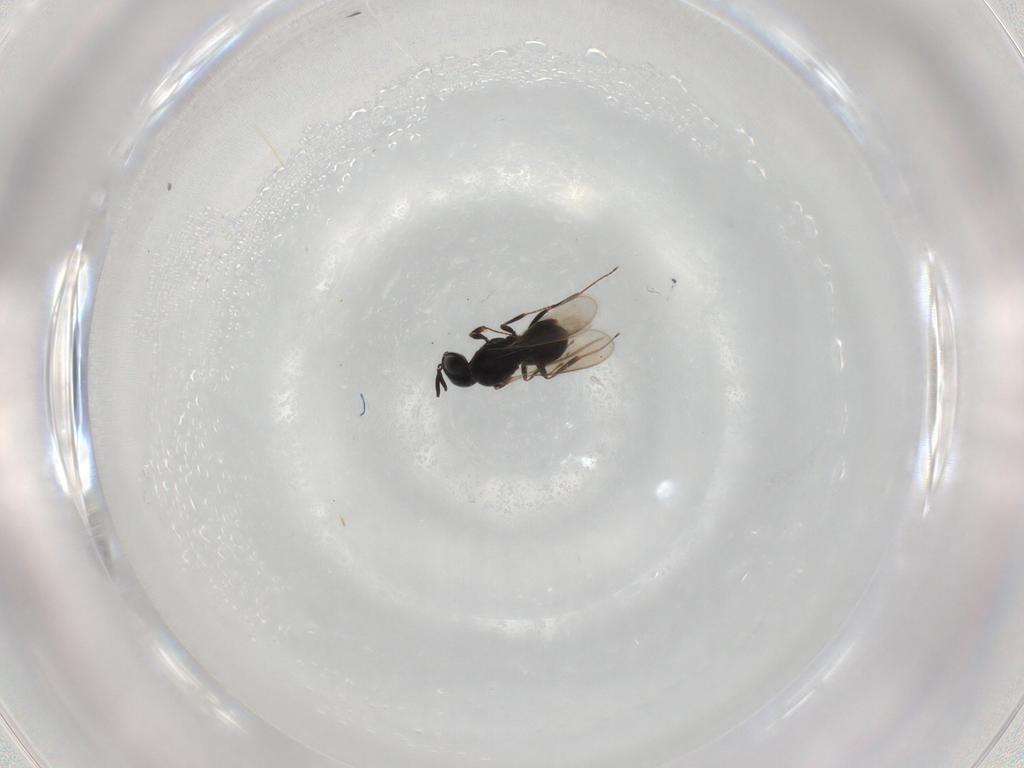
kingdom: Animalia
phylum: Arthropoda
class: Insecta
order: Hymenoptera
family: Scelionidae
